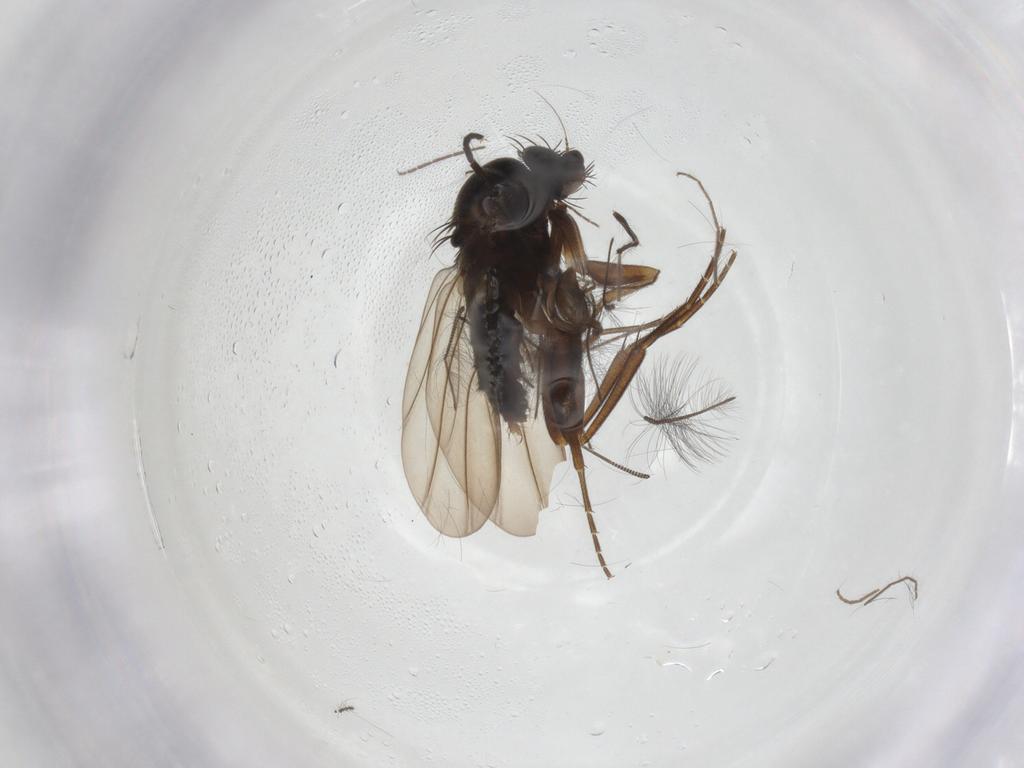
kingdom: Animalia
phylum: Arthropoda
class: Insecta
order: Diptera
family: Phoridae
